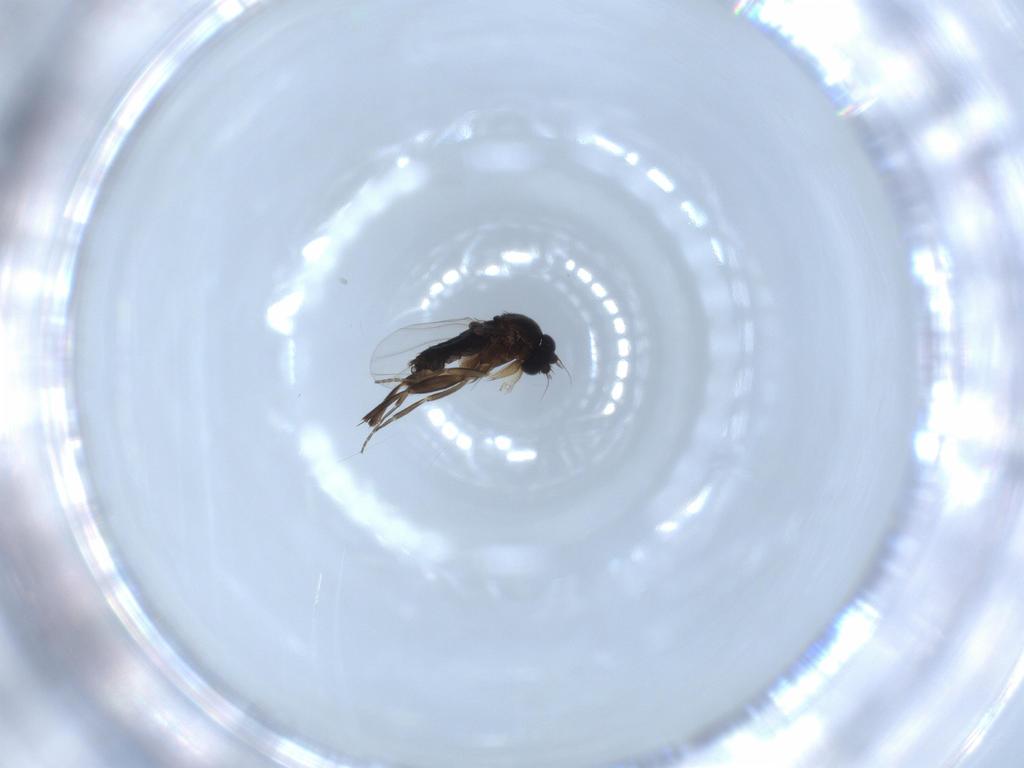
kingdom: Animalia
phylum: Arthropoda
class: Insecta
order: Diptera
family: Phoridae
